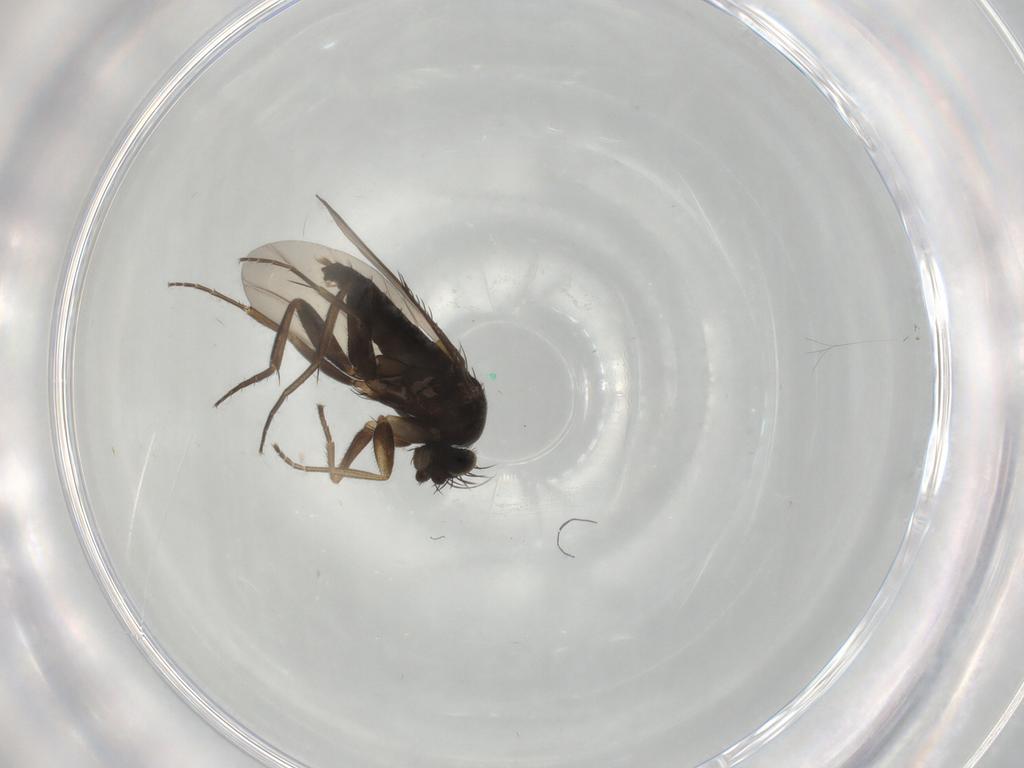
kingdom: Animalia
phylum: Arthropoda
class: Insecta
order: Diptera
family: Phoridae
